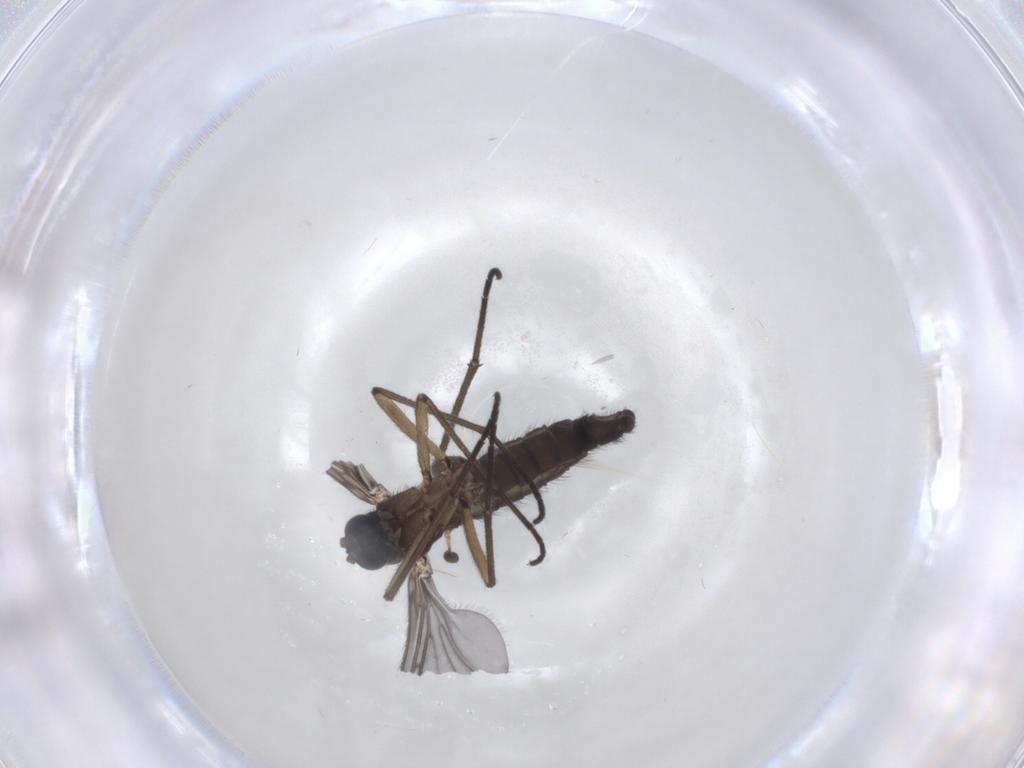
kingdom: Animalia
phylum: Arthropoda
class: Insecta
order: Diptera
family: Sciaridae
